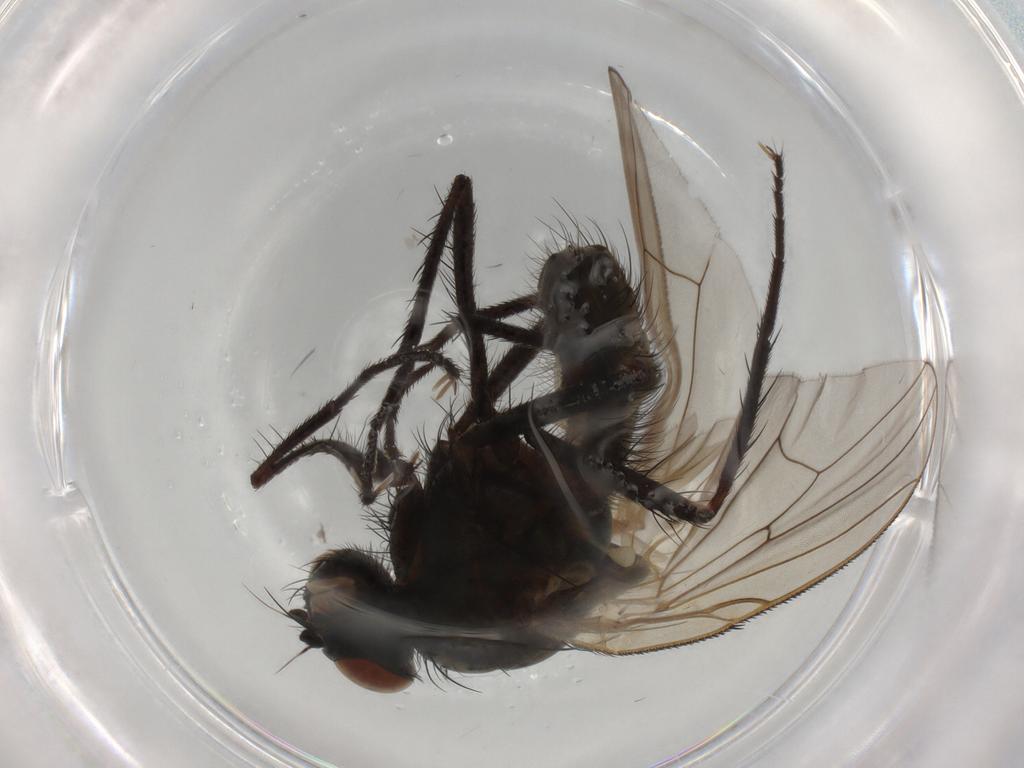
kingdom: Animalia
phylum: Arthropoda
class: Insecta
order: Diptera
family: Anthomyiidae
